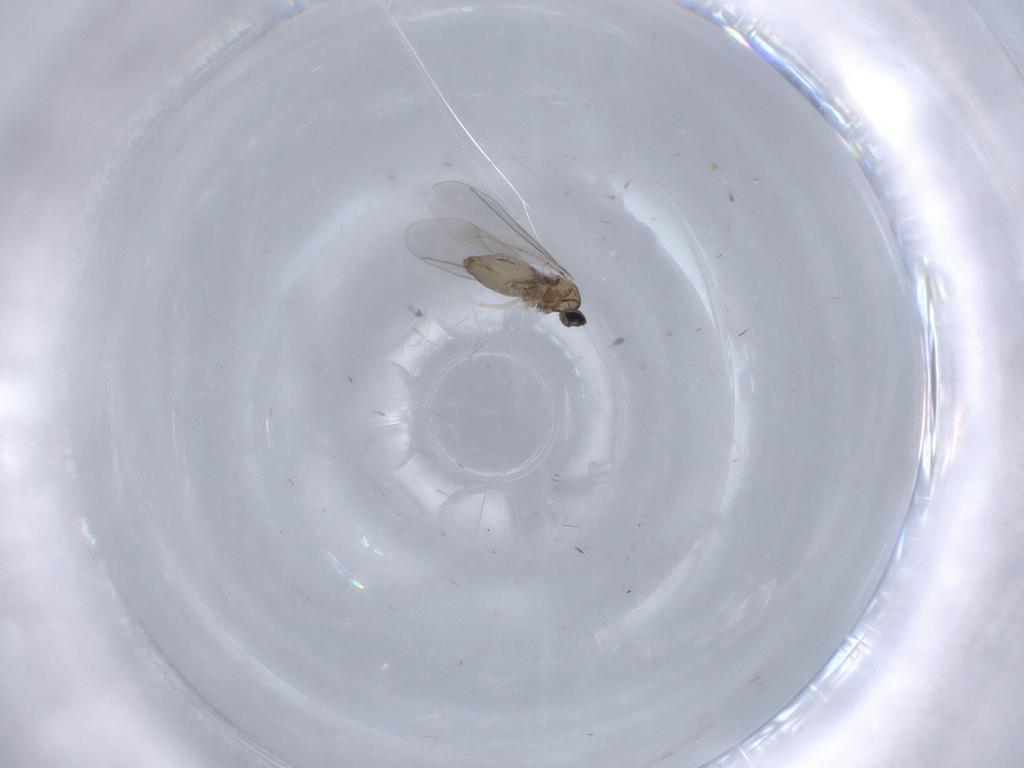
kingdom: Animalia
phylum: Arthropoda
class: Insecta
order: Diptera
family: Cecidomyiidae
